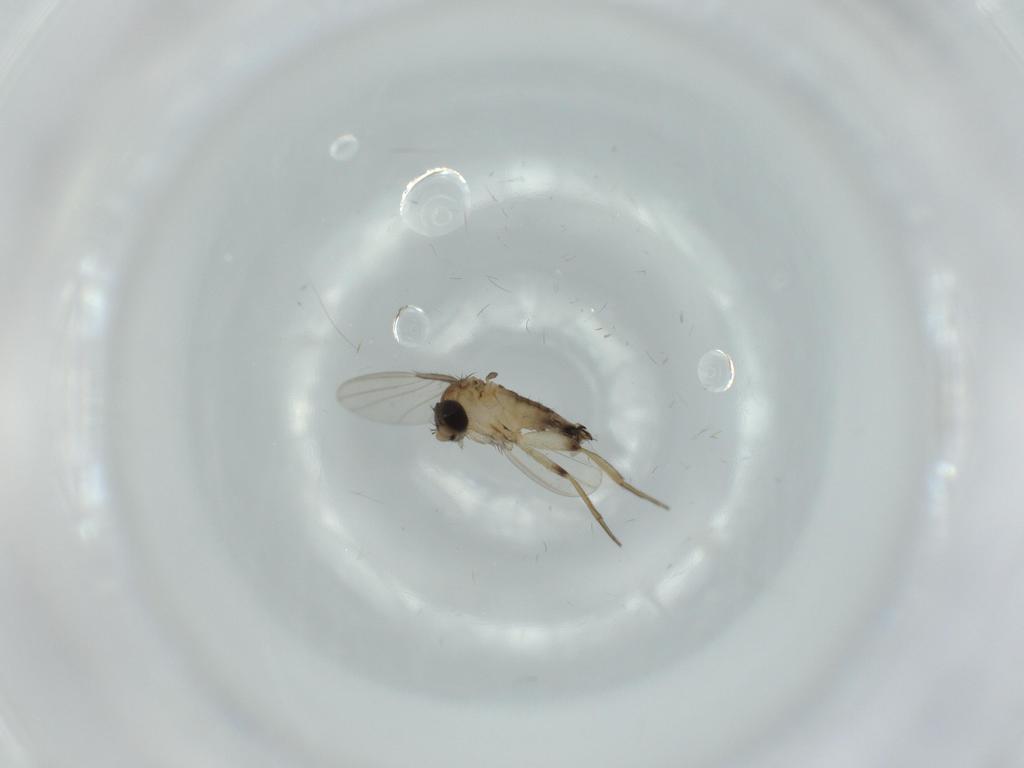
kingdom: Animalia
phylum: Arthropoda
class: Insecta
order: Diptera
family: Phoridae
